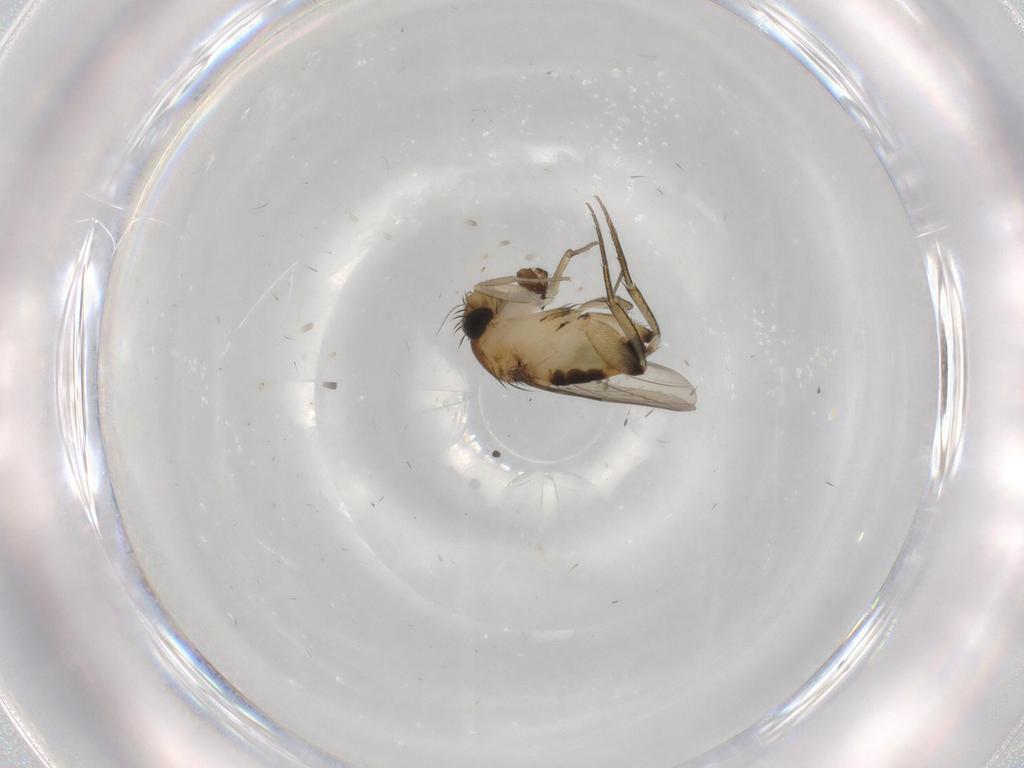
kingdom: Animalia
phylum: Arthropoda
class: Insecta
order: Diptera
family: Phoridae
